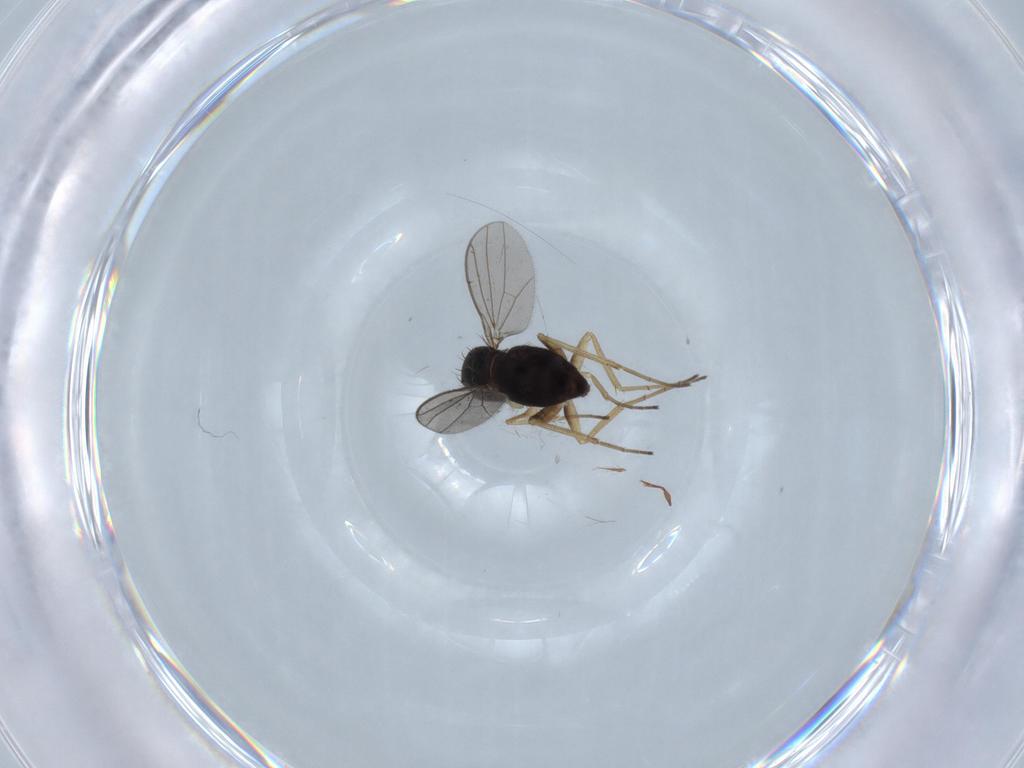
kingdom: Animalia
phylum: Arthropoda
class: Insecta
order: Diptera
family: Dolichopodidae
